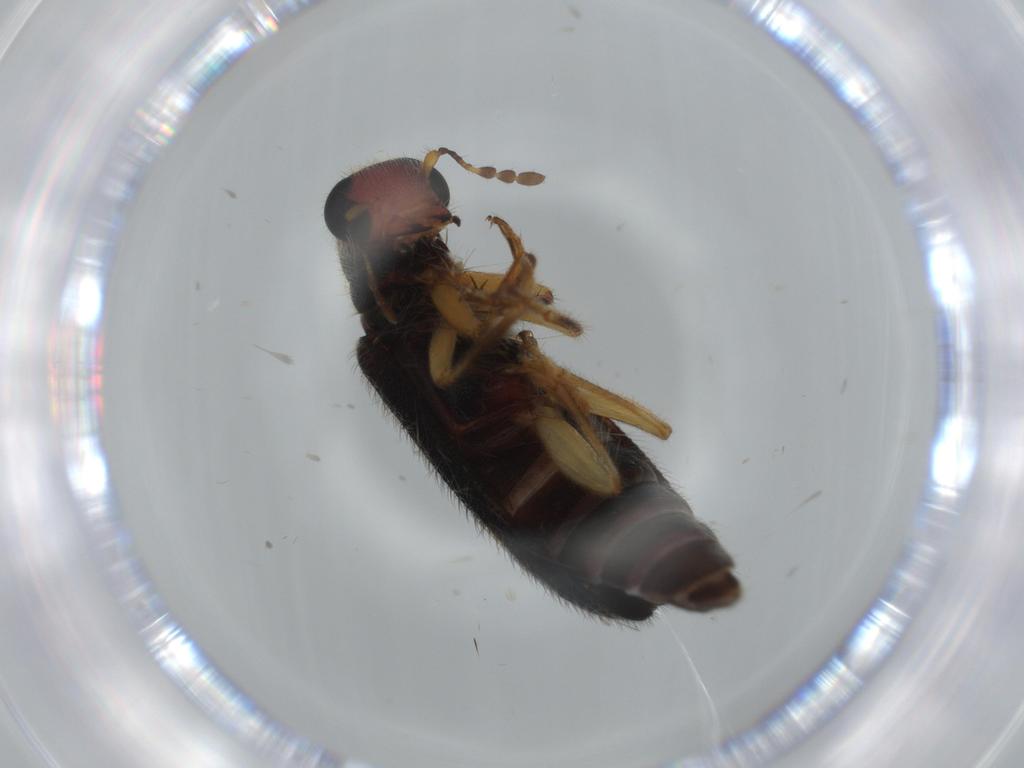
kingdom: Animalia
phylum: Arthropoda
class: Insecta
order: Coleoptera
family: Cleridae
